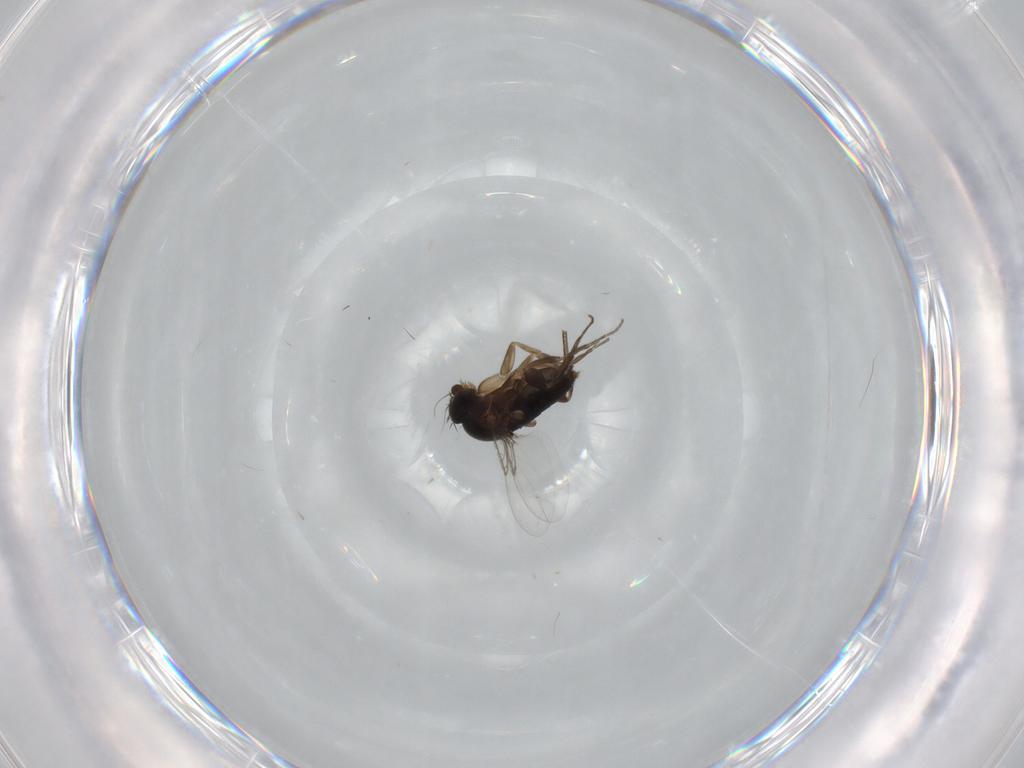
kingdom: Animalia
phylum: Arthropoda
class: Insecta
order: Diptera
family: Phoridae
